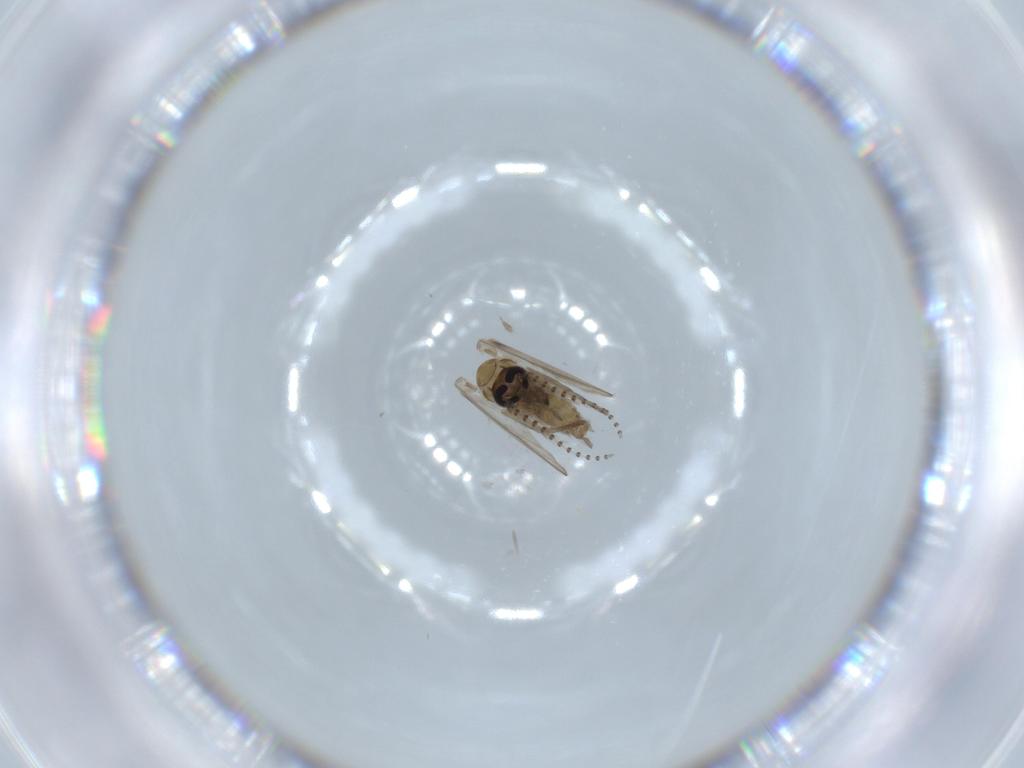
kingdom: Animalia
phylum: Arthropoda
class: Insecta
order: Diptera
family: Psychodidae
